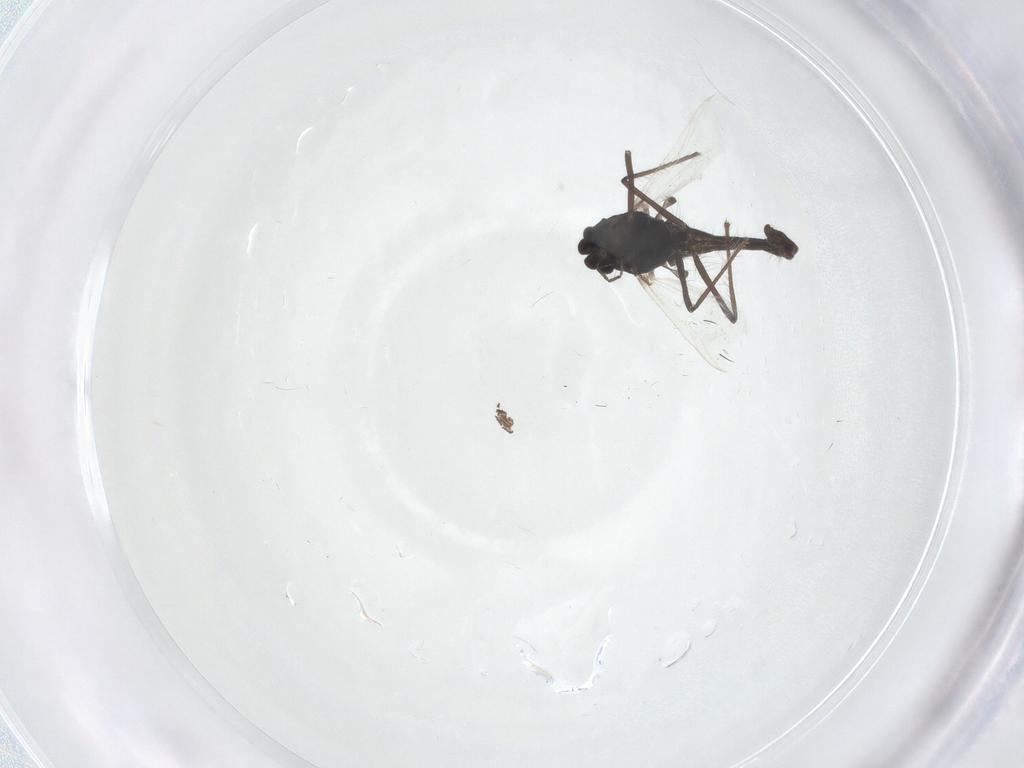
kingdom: Animalia
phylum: Arthropoda
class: Insecta
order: Diptera
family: Mycetophilidae
